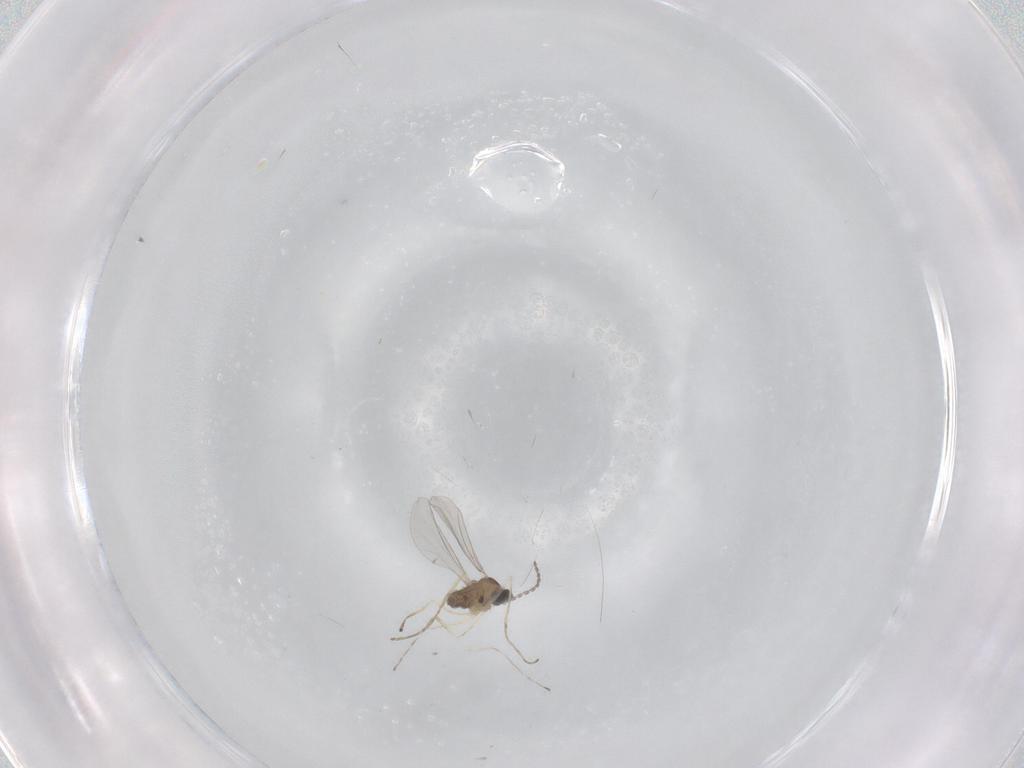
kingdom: Animalia
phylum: Arthropoda
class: Insecta
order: Diptera
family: Cecidomyiidae
